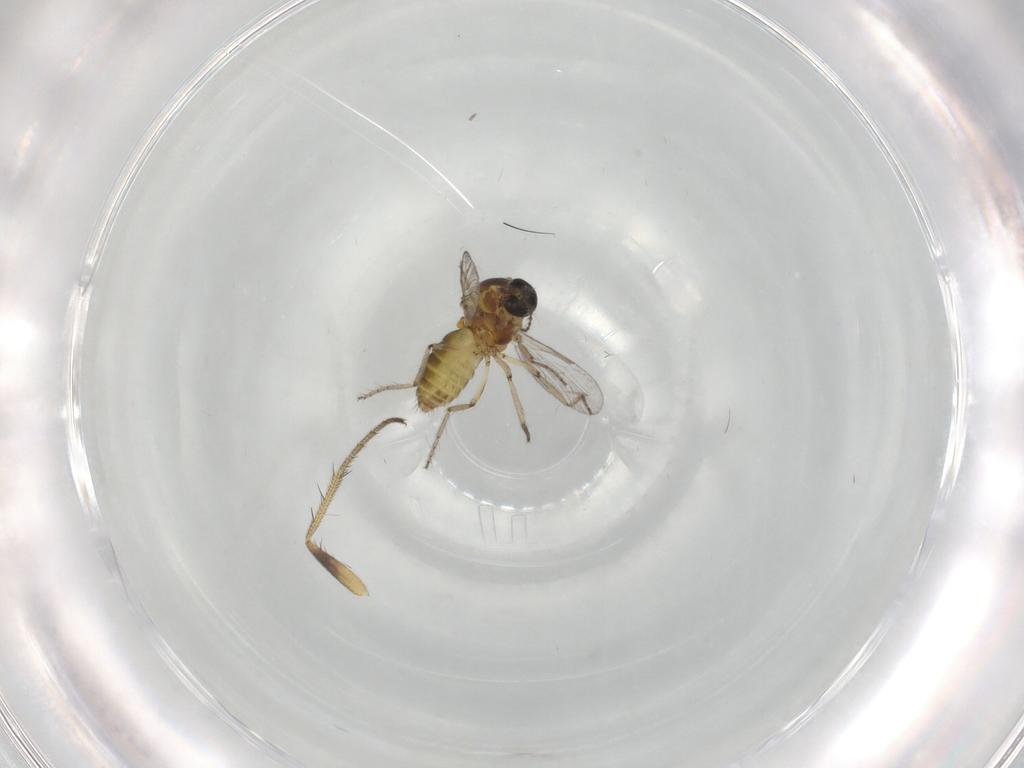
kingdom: Animalia
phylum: Arthropoda
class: Insecta
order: Diptera
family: Dolichopodidae
